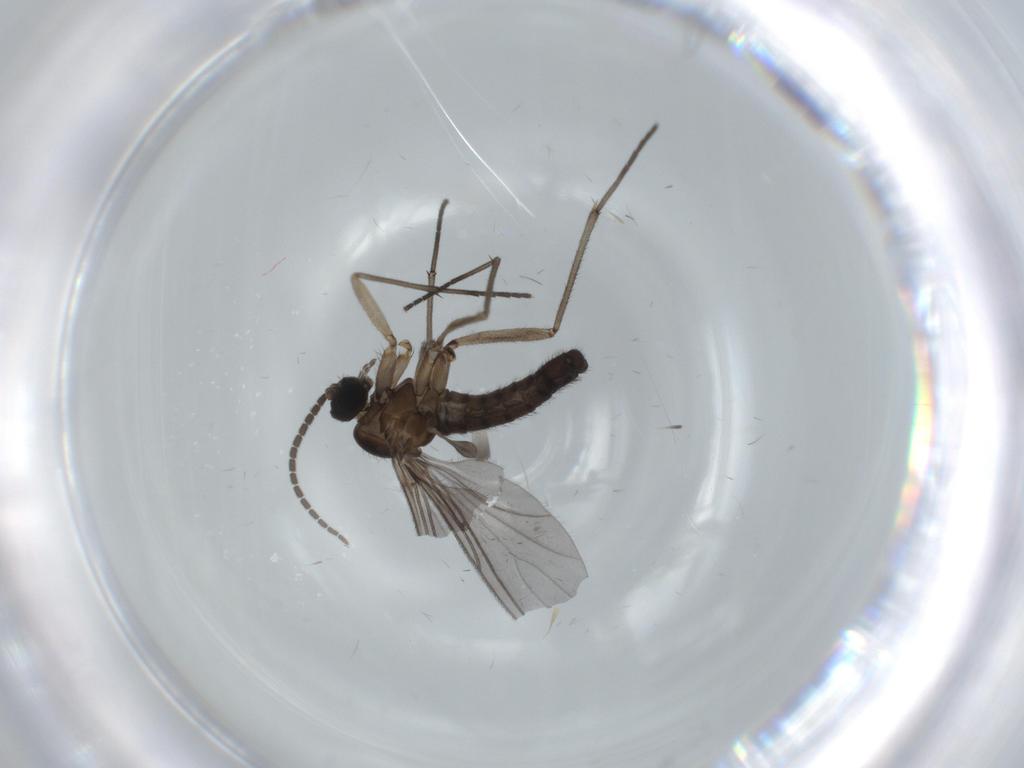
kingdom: Animalia
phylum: Arthropoda
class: Insecta
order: Diptera
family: Sciaridae
